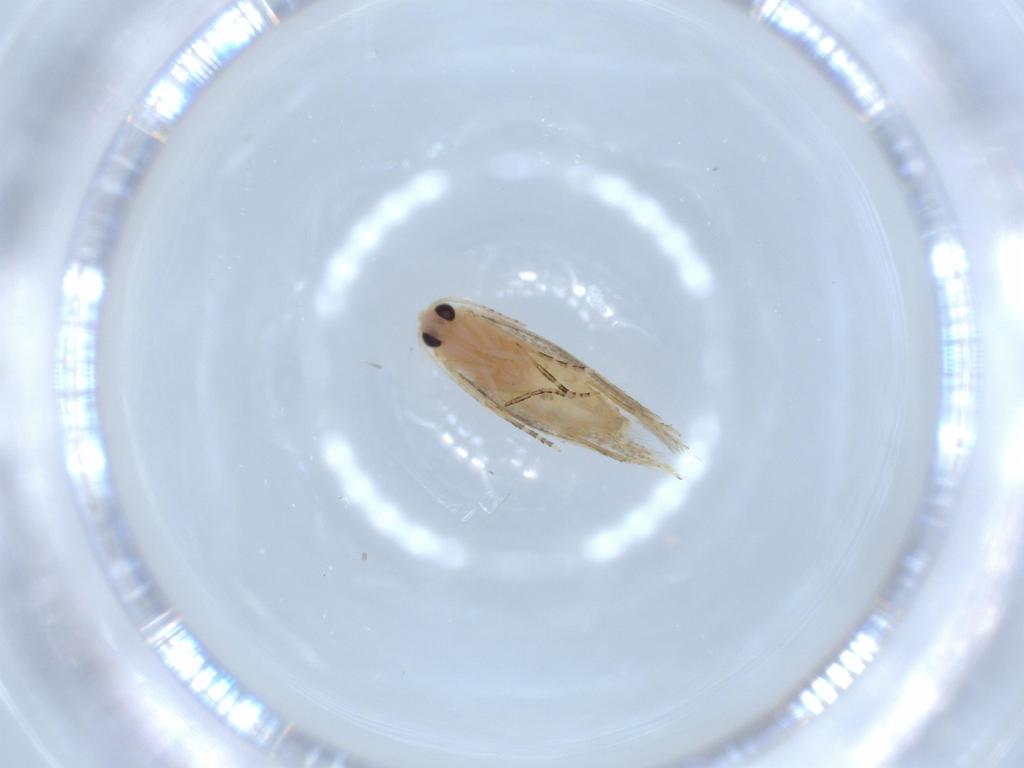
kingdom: Animalia
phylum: Arthropoda
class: Insecta
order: Lepidoptera
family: Bucculatricidae
